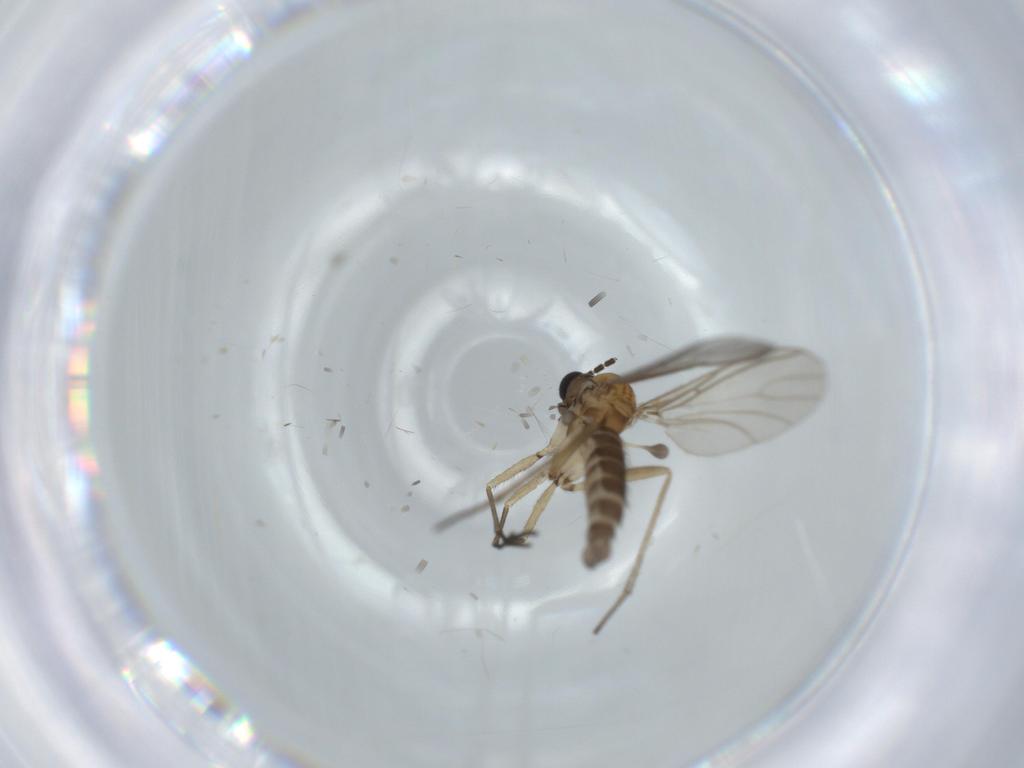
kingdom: Animalia
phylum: Arthropoda
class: Insecta
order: Diptera
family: Sciaridae
